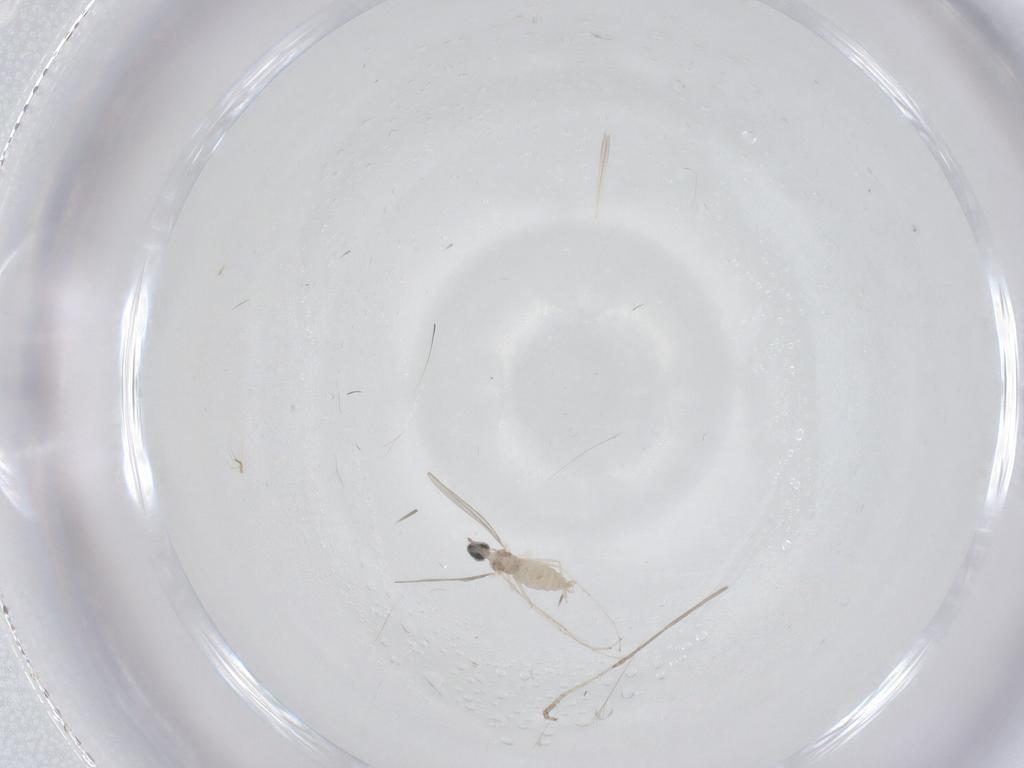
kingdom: Animalia
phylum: Arthropoda
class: Insecta
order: Diptera
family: Cecidomyiidae
